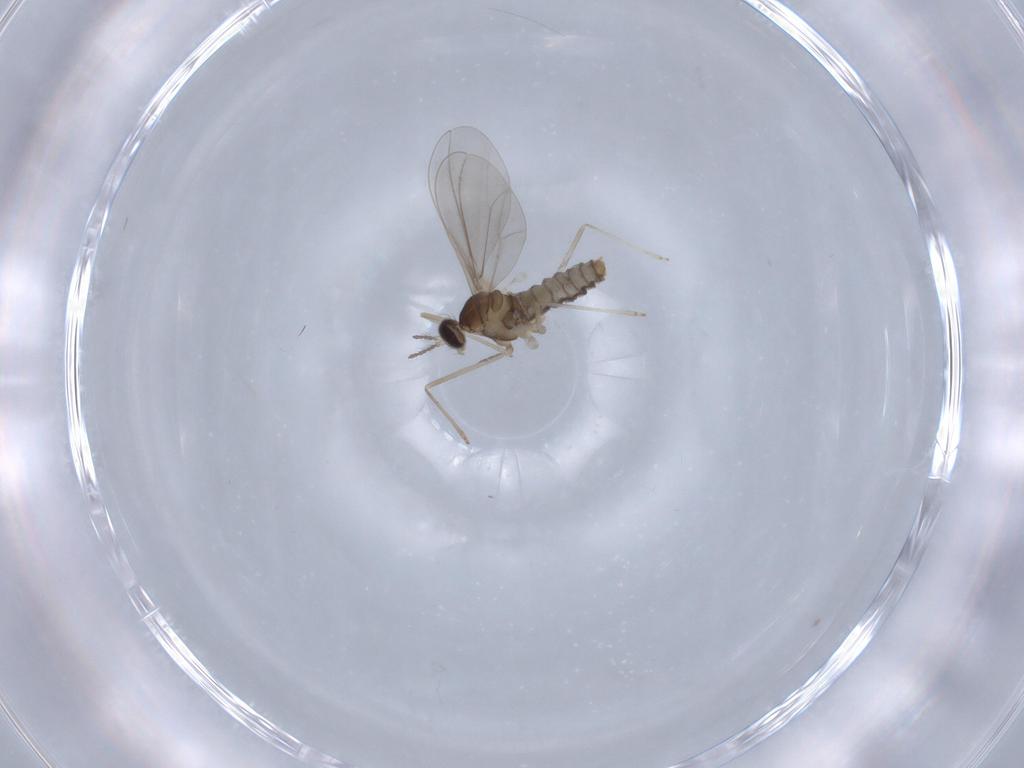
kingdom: Animalia
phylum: Arthropoda
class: Insecta
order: Diptera
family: Cecidomyiidae
